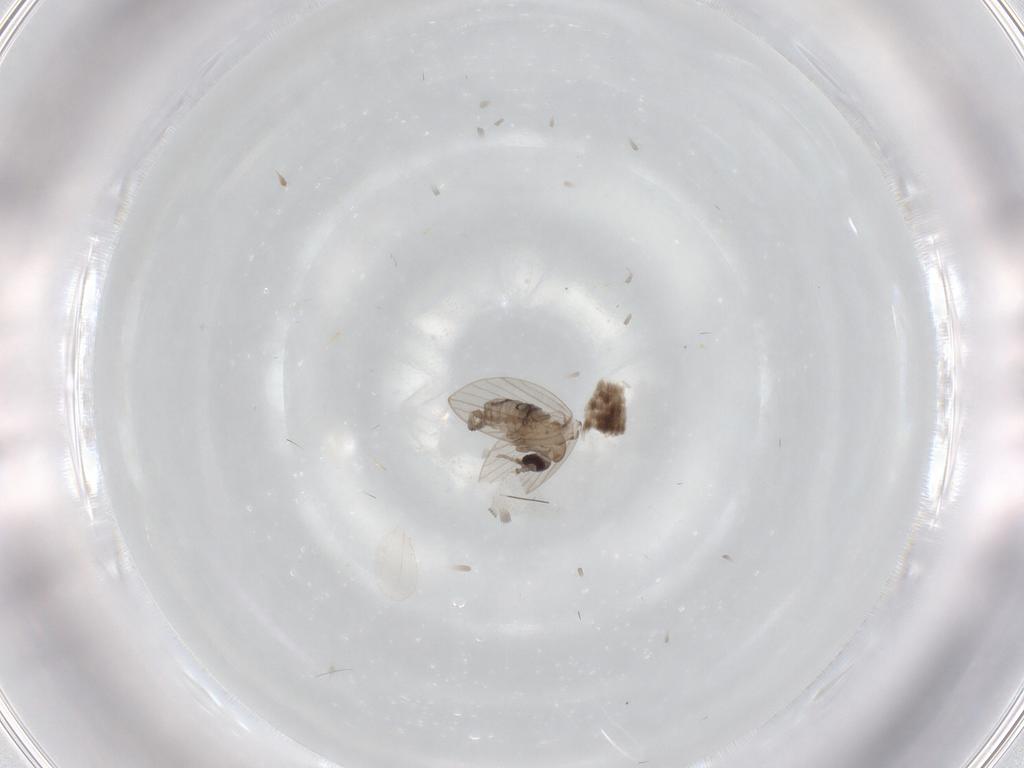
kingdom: Animalia
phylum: Arthropoda
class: Insecta
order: Diptera
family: Psychodidae
